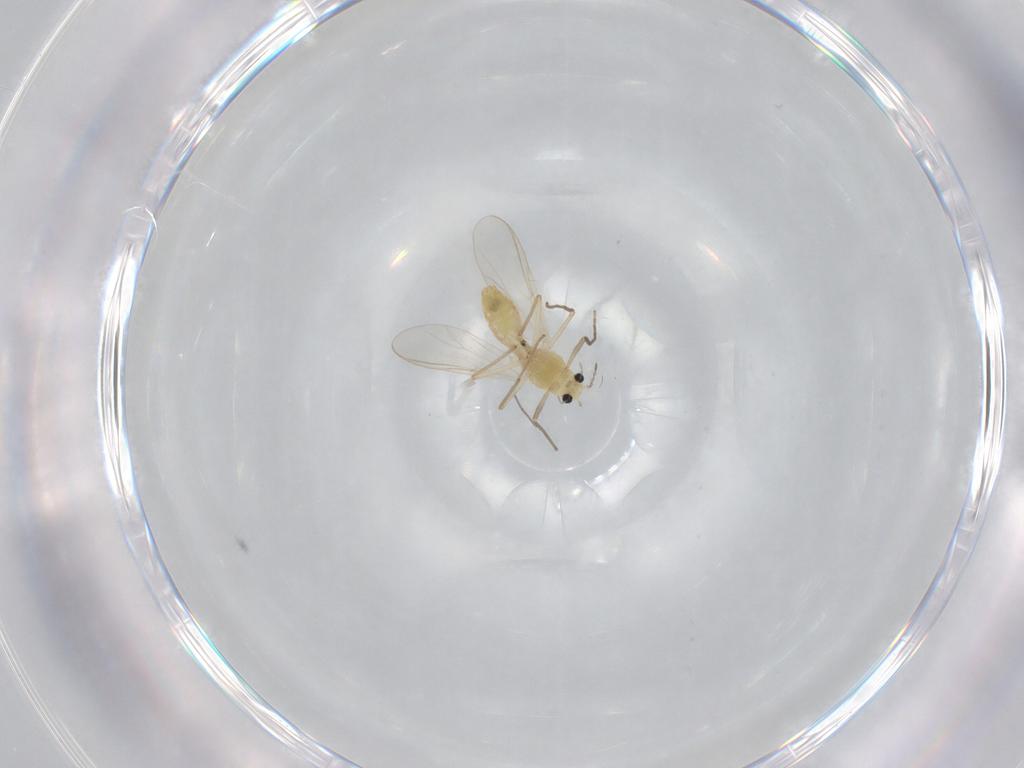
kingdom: Animalia
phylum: Arthropoda
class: Insecta
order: Diptera
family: Chironomidae
